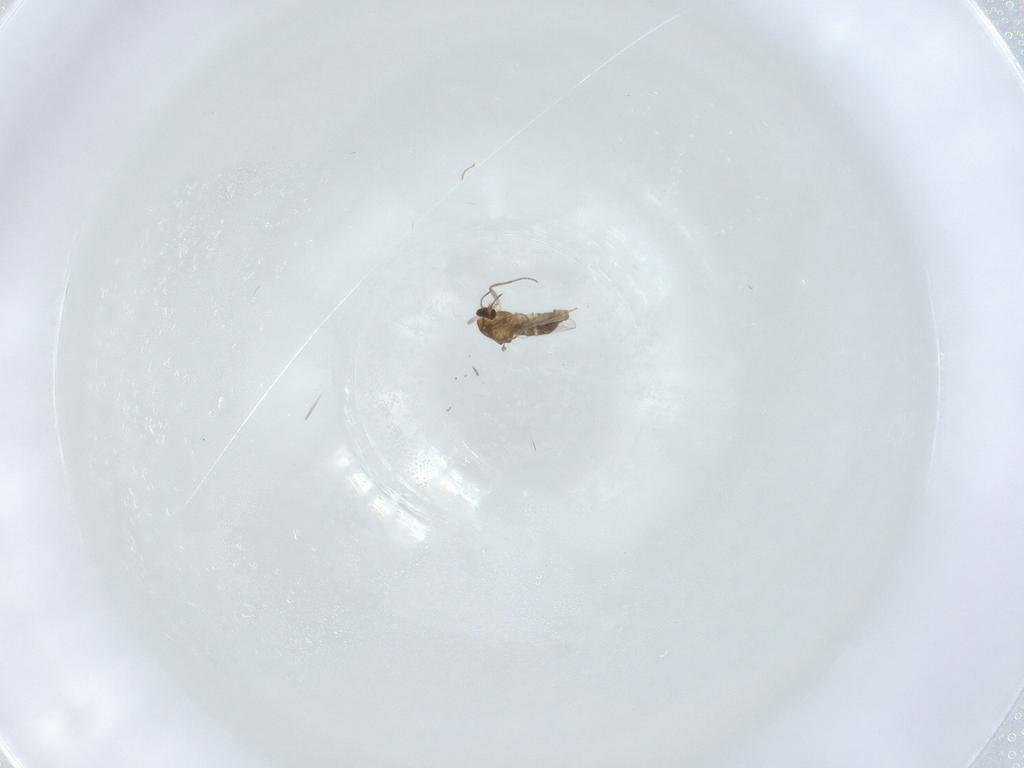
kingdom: Animalia
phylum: Arthropoda
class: Insecta
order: Diptera
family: Chironomidae
